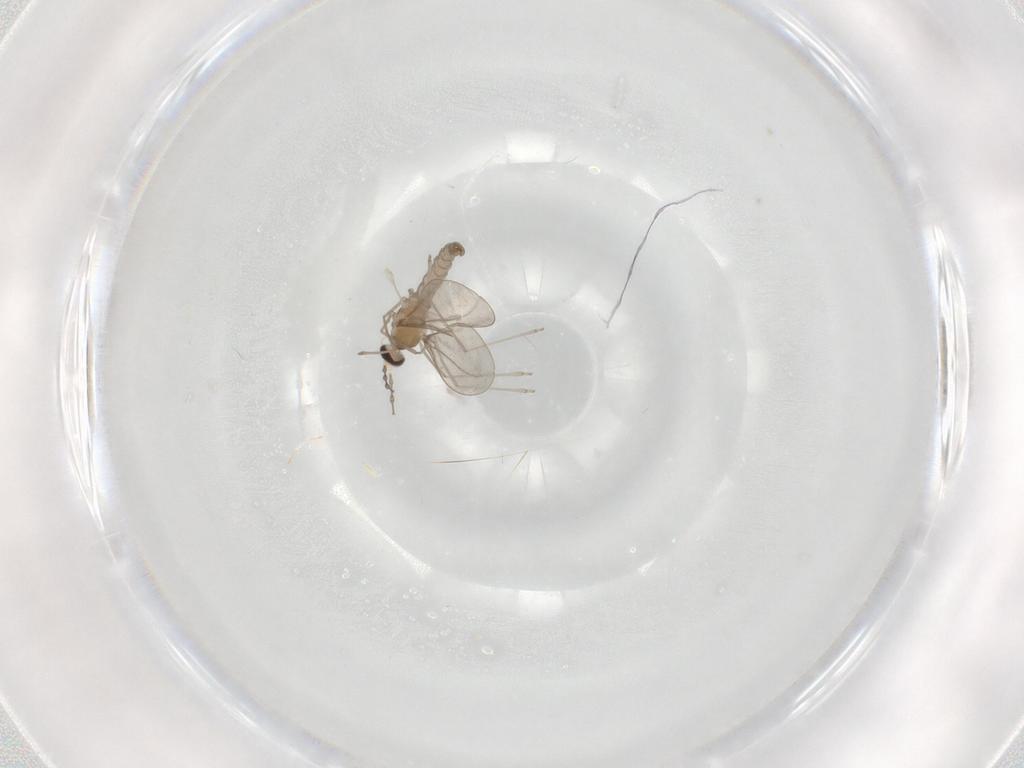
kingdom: Animalia
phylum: Arthropoda
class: Insecta
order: Diptera
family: Cecidomyiidae
